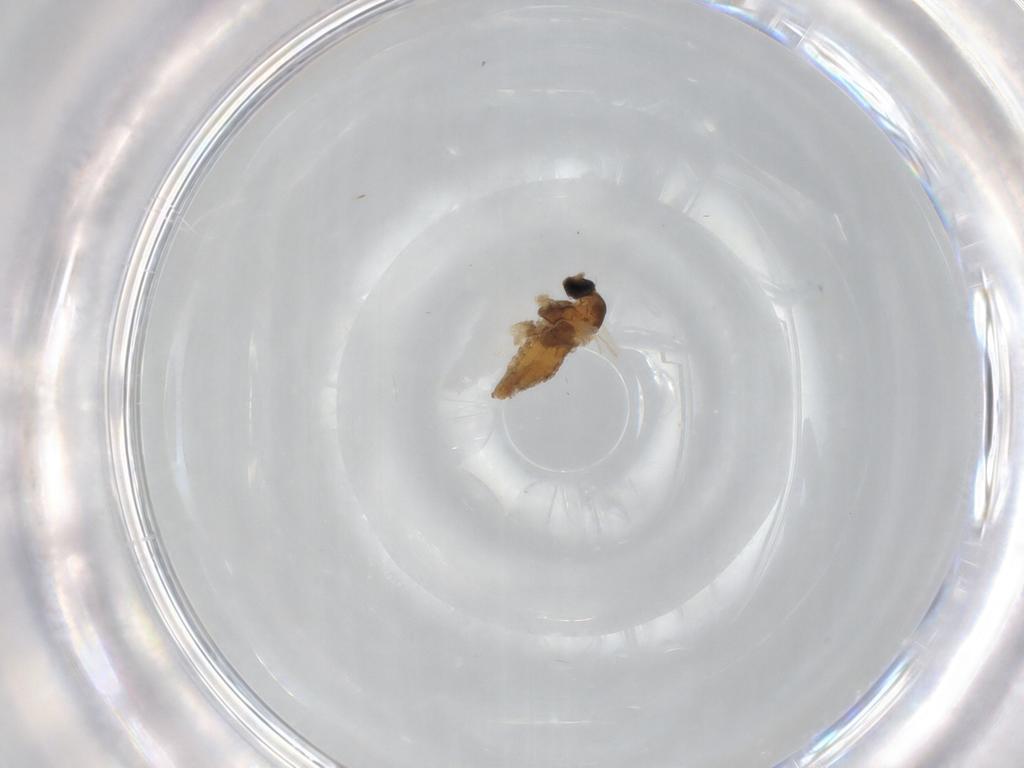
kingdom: Animalia
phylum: Arthropoda
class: Insecta
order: Diptera
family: Cecidomyiidae
